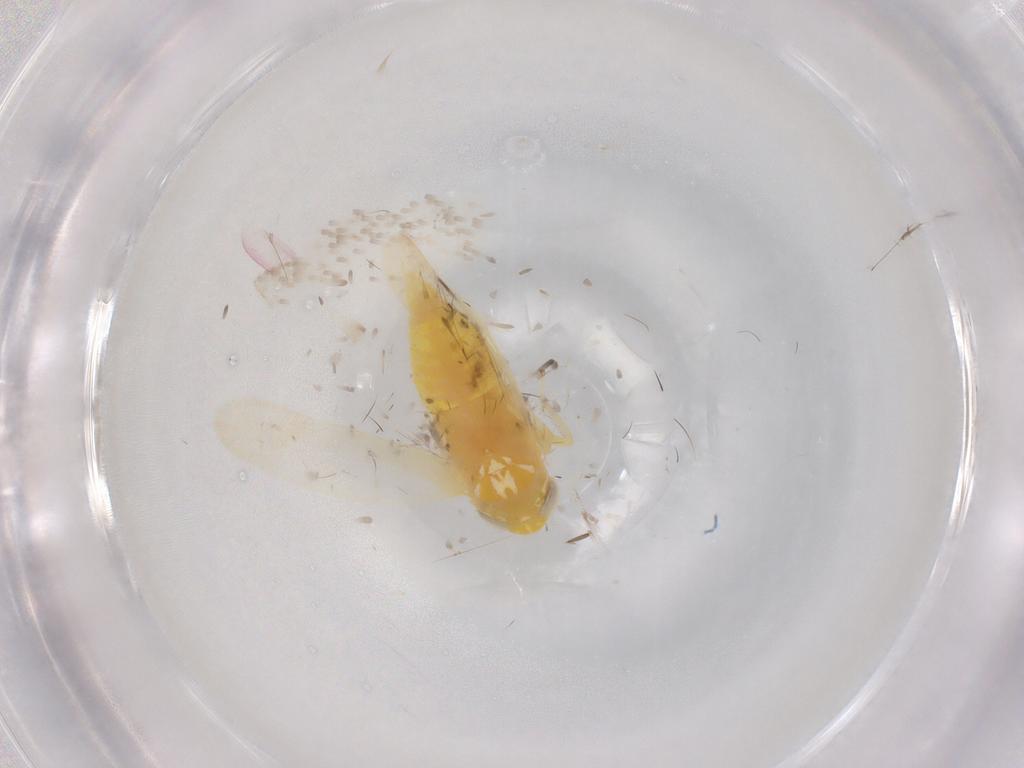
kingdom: Animalia
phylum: Arthropoda
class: Insecta
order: Hemiptera
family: Cicadellidae
